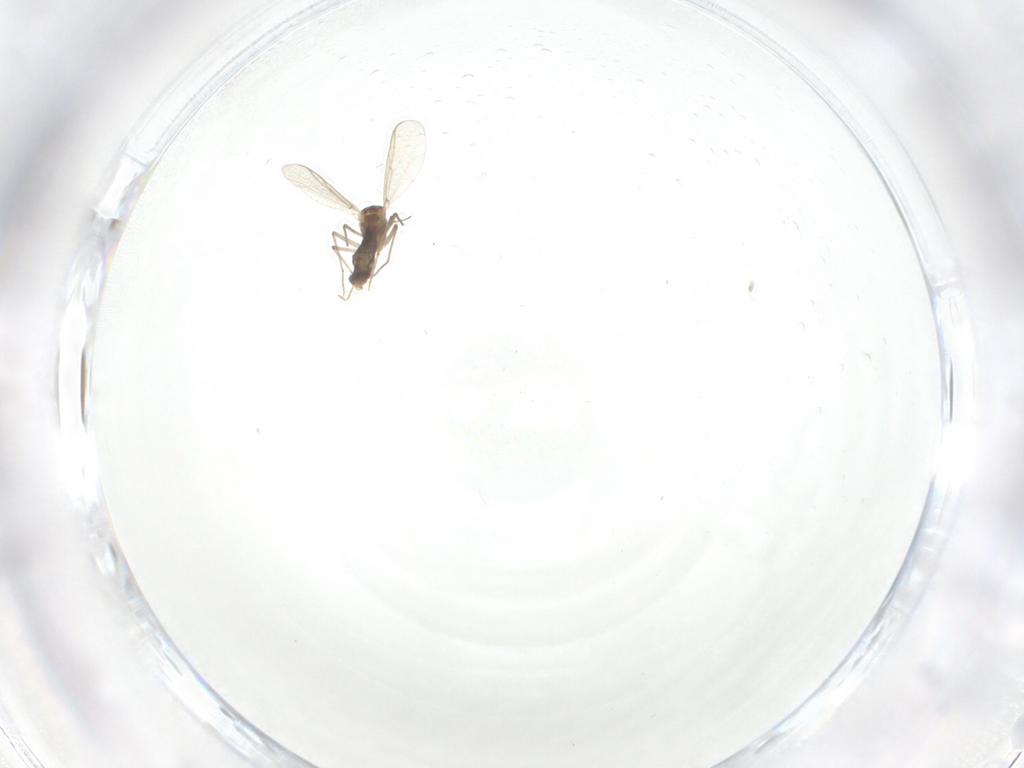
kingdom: Animalia
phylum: Arthropoda
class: Insecta
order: Diptera
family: Chironomidae
